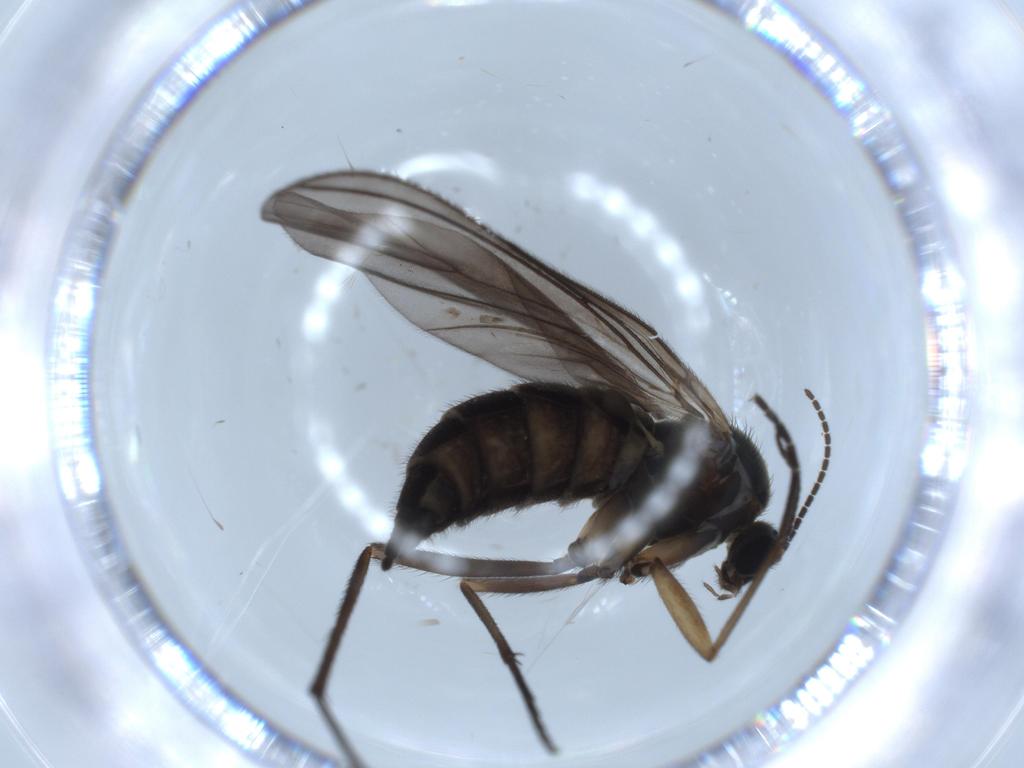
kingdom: Animalia
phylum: Arthropoda
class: Insecta
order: Diptera
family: Sciaridae
